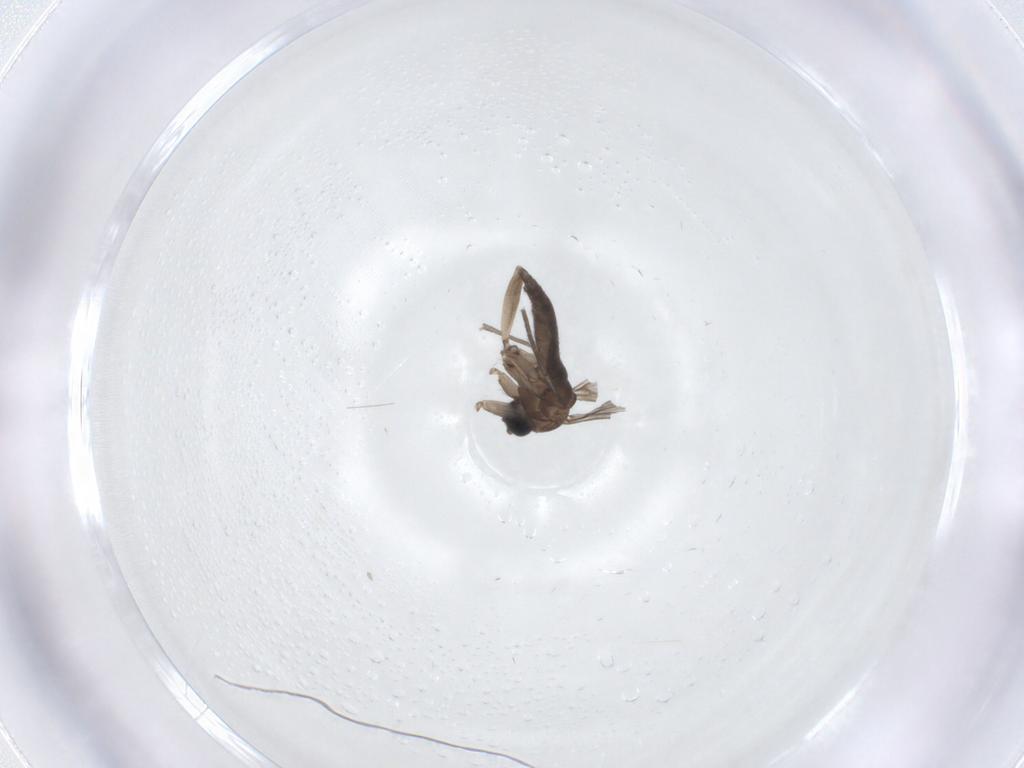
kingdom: Animalia
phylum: Arthropoda
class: Insecta
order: Diptera
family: Sciaridae
